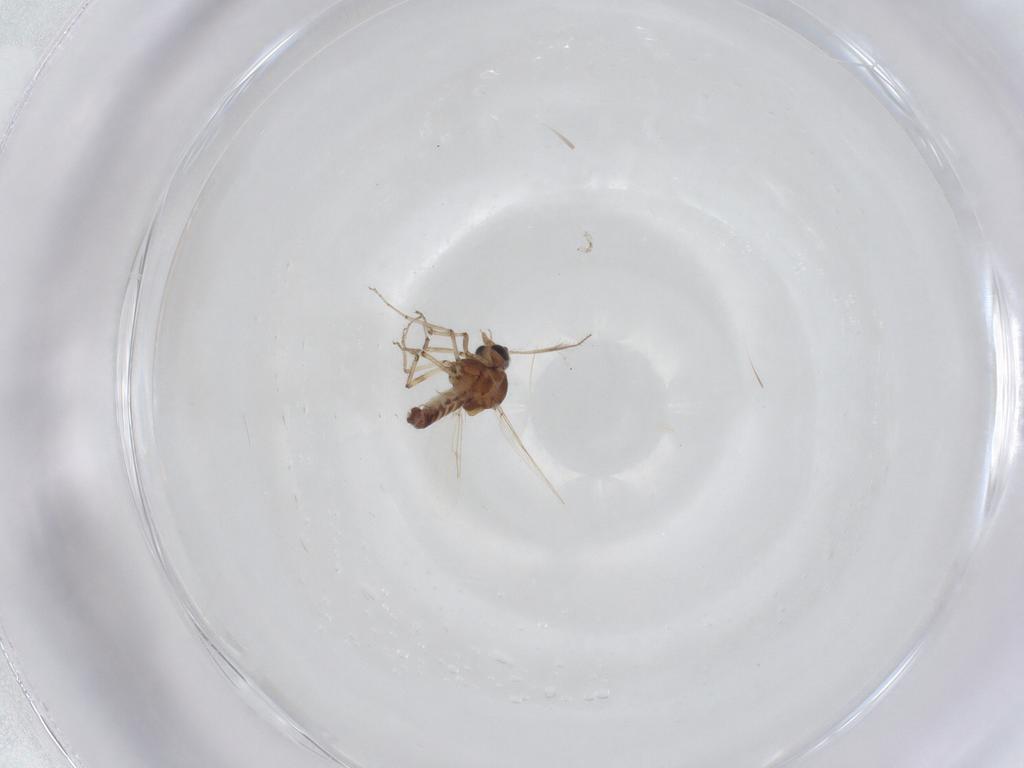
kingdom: Animalia
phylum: Arthropoda
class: Insecta
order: Diptera
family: Ceratopogonidae
